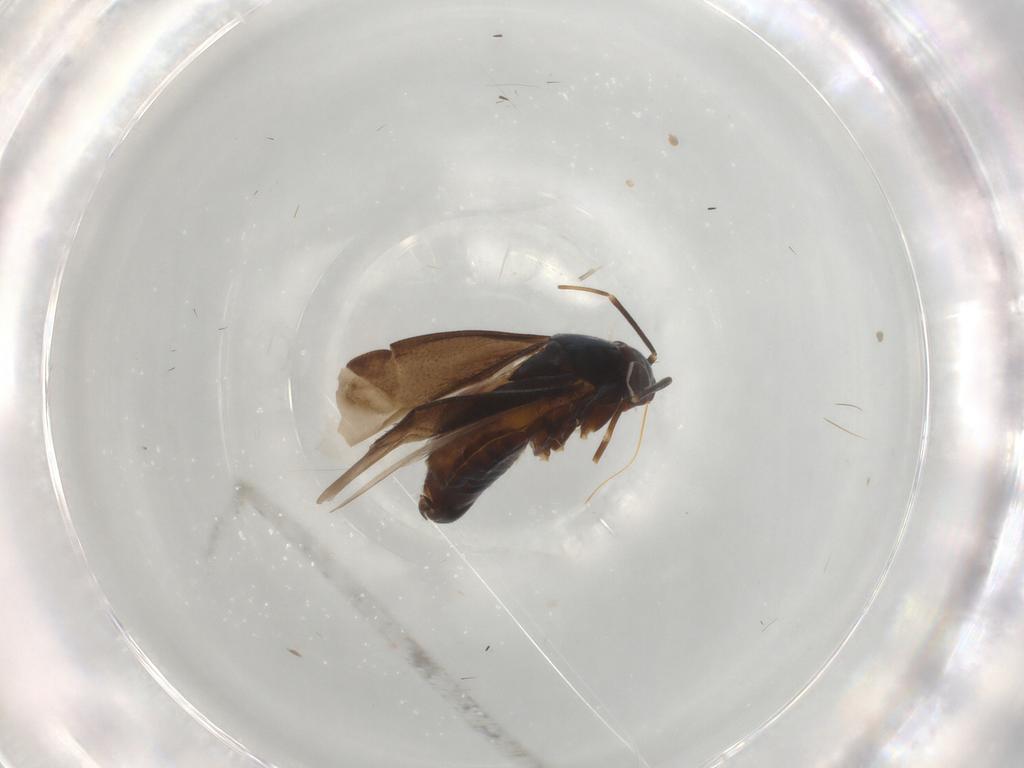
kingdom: Animalia
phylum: Arthropoda
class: Insecta
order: Hemiptera
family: Miridae
